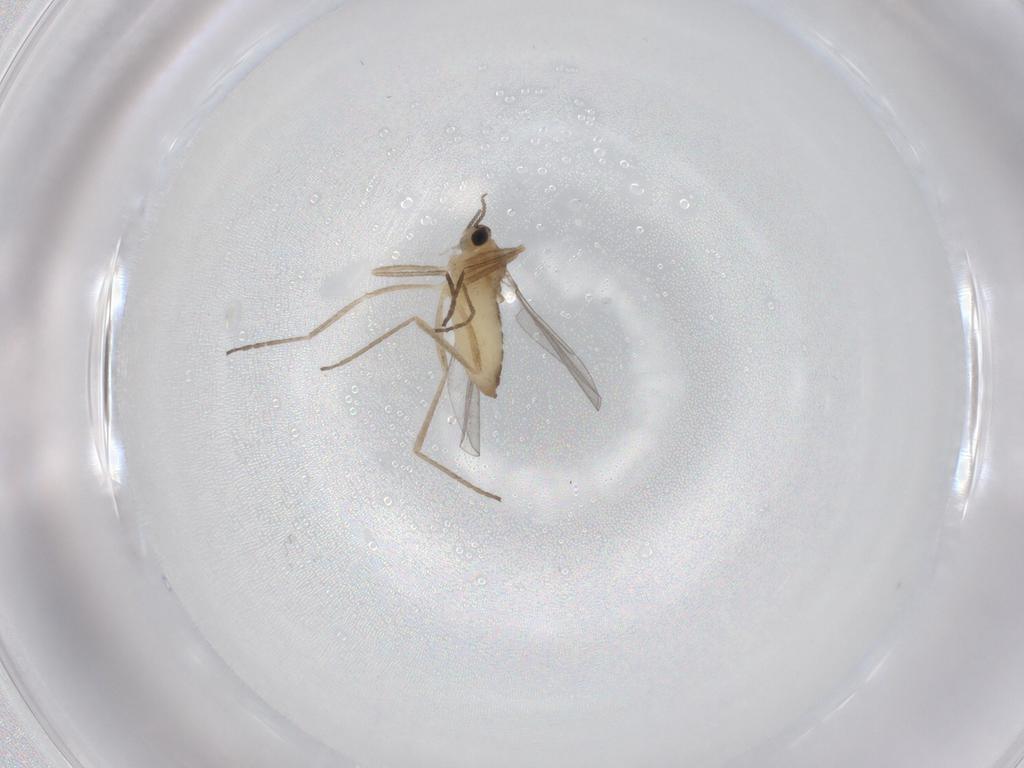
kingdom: Animalia
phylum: Arthropoda
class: Insecta
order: Diptera
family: Cecidomyiidae
